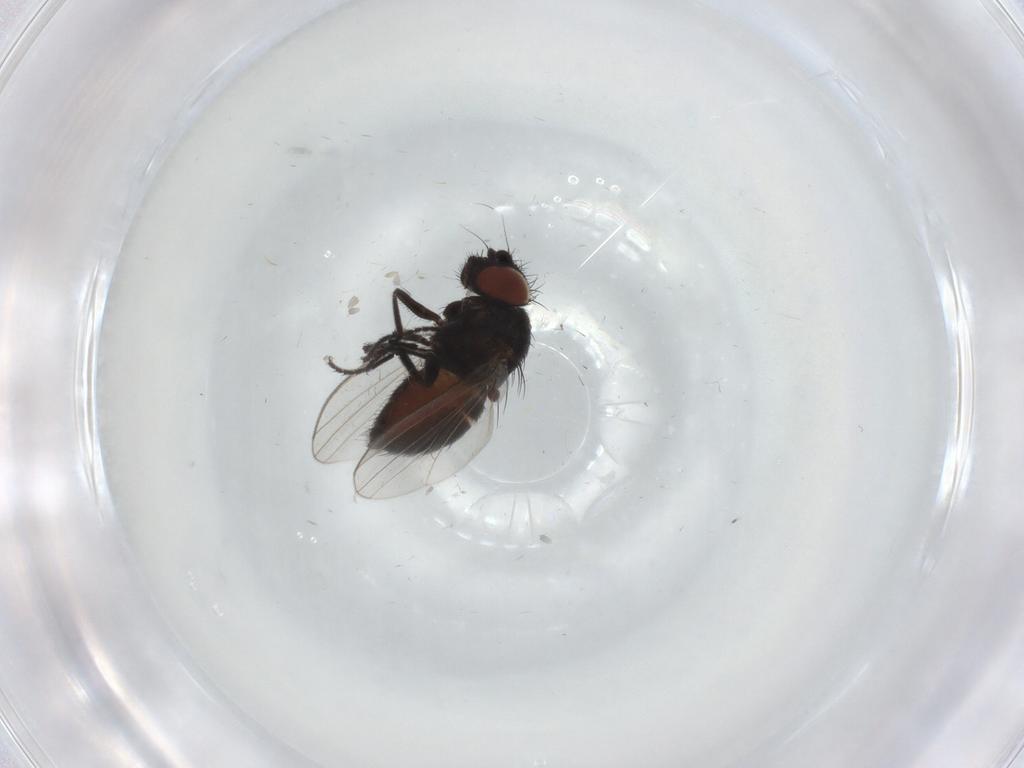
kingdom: Animalia
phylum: Arthropoda
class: Insecta
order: Diptera
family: Milichiidae
